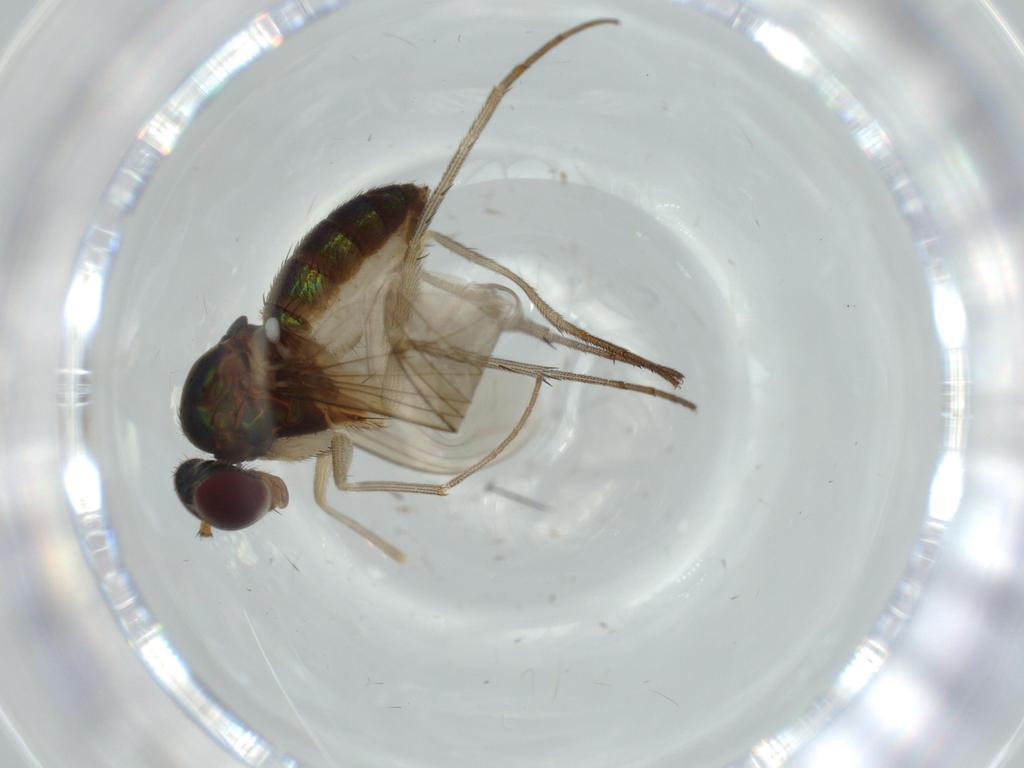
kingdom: Animalia
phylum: Arthropoda
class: Insecta
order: Diptera
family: Dolichopodidae
